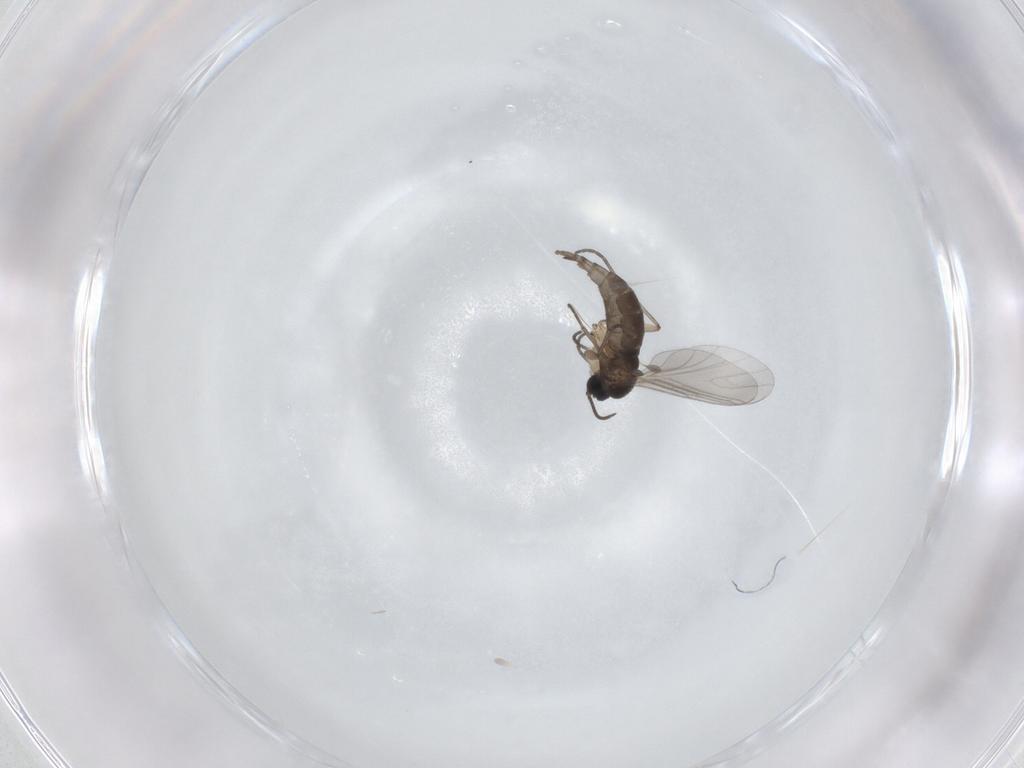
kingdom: Animalia
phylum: Arthropoda
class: Insecta
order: Diptera
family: Sciaridae
